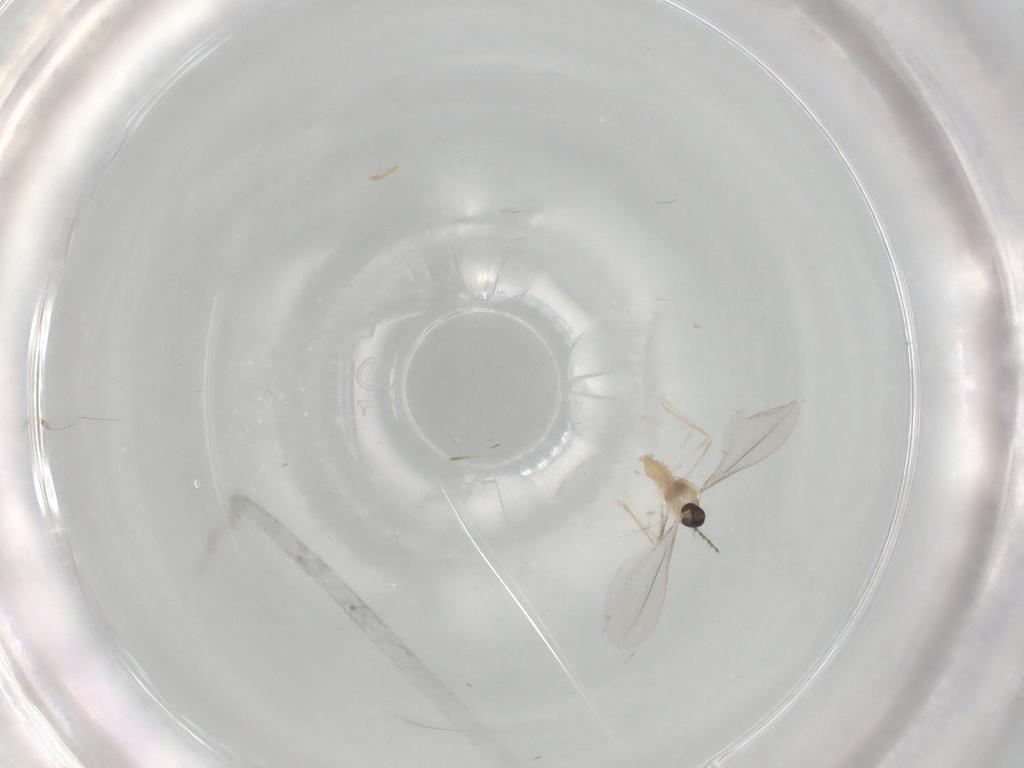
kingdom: Animalia
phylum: Arthropoda
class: Insecta
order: Diptera
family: Cecidomyiidae
